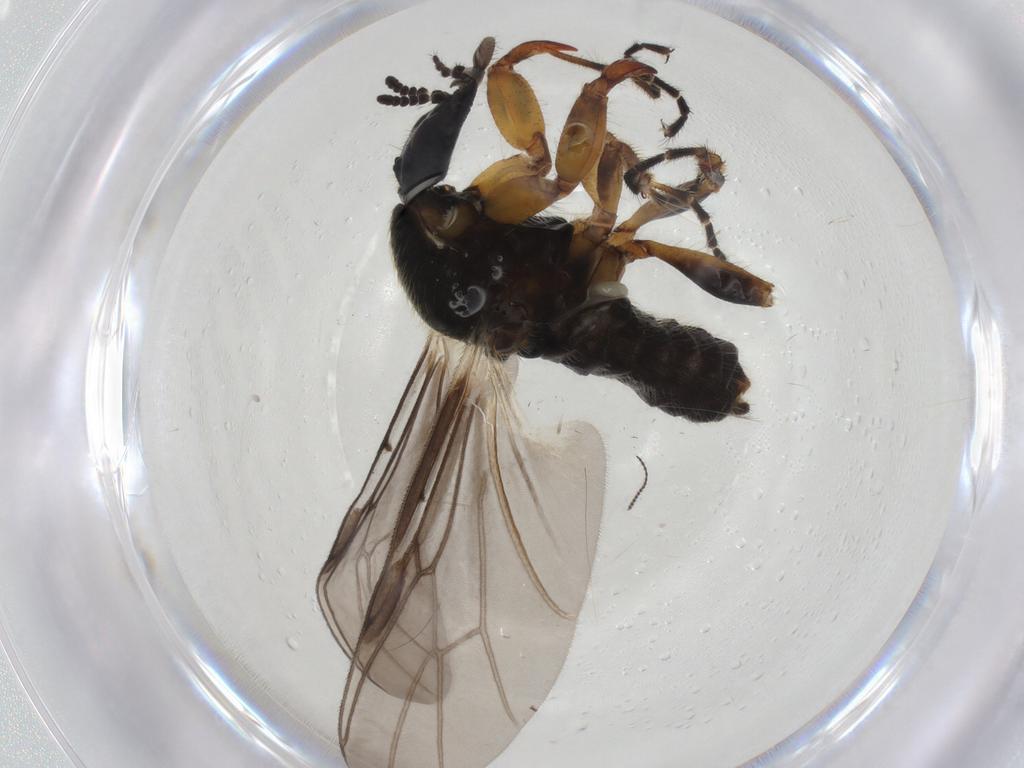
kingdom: Animalia
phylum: Arthropoda
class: Insecta
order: Diptera
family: Bibionidae
